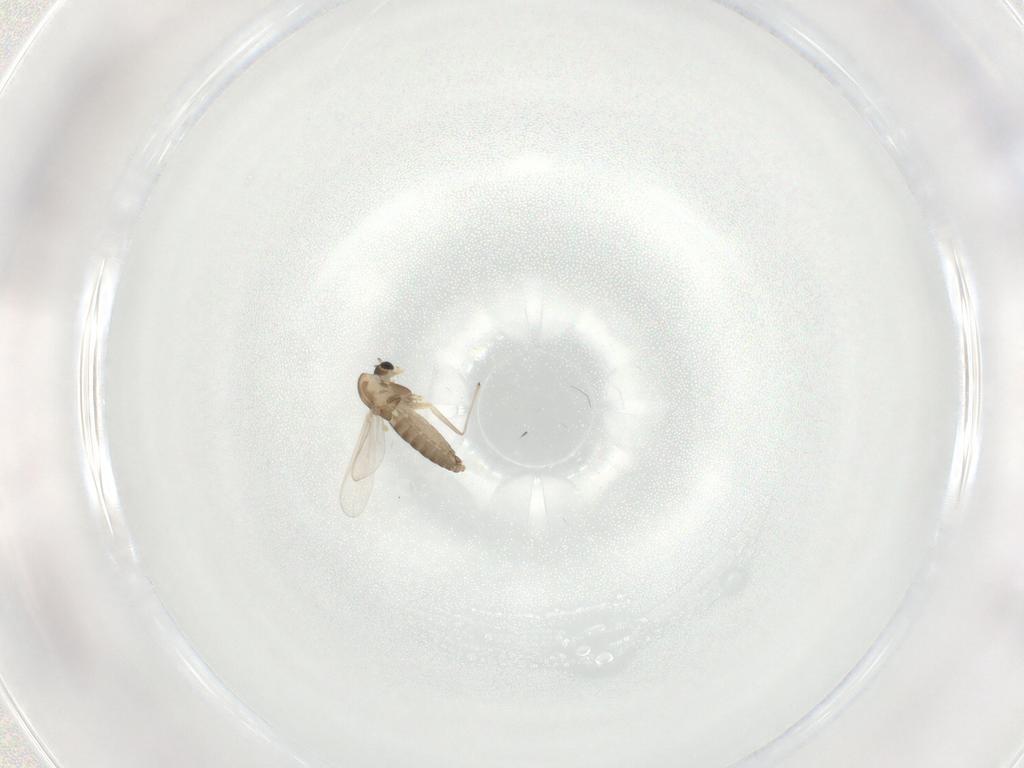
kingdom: Animalia
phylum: Arthropoda
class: Insecta
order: Diptera
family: Chironomidae
